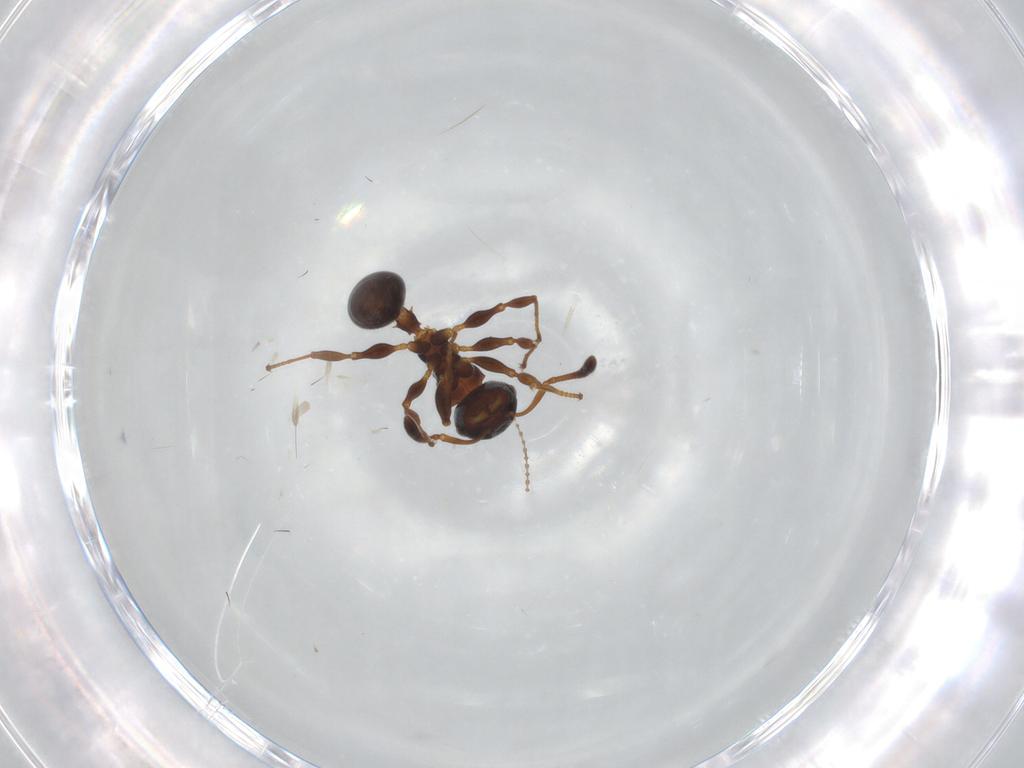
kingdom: Animalia
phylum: Arthropoda
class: Insecta
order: Hymenoptera
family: Formicidae
